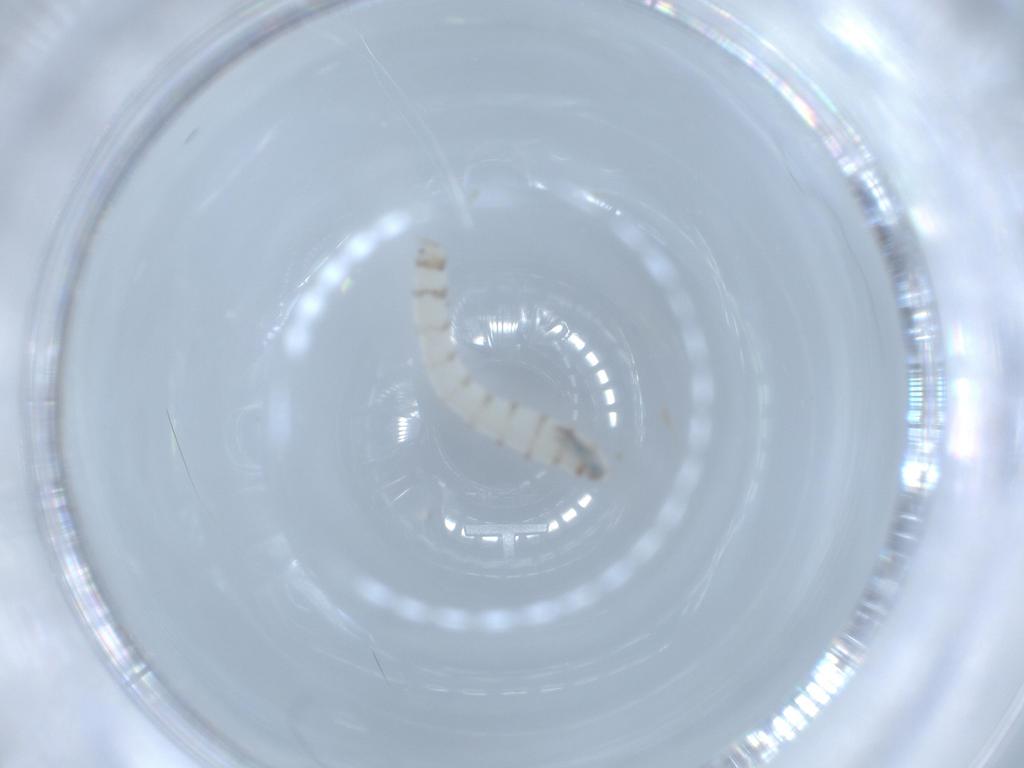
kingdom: Animalia
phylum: Arthropoda
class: Insecta
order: Diptera
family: Sarcophagidae
